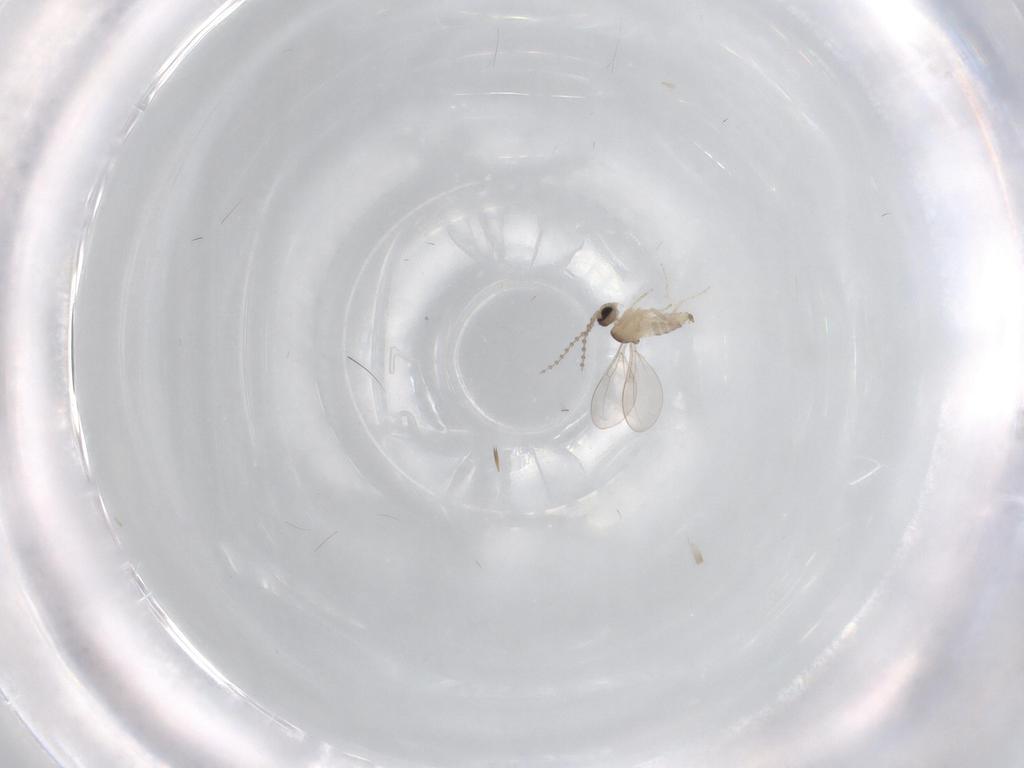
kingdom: Animalia
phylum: Arthropoda
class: Insecta
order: Diptera
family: Cecidomyiidae
